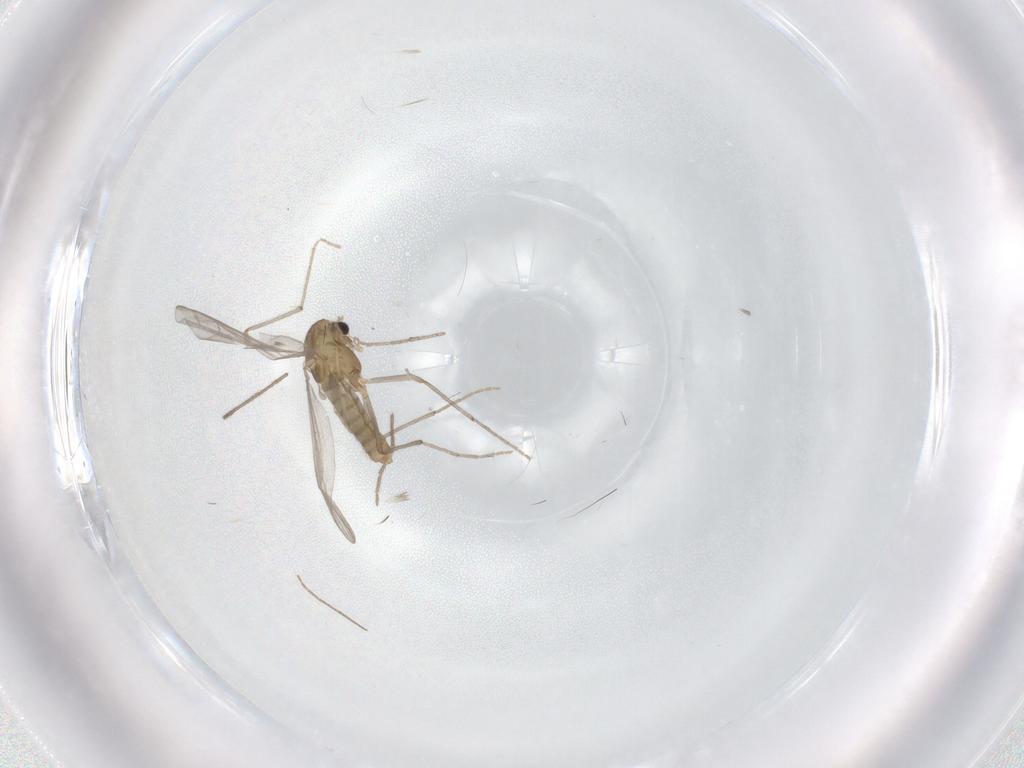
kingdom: Animalia
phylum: Arthropoda
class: Insecta
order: Diptera
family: Chironomidae
